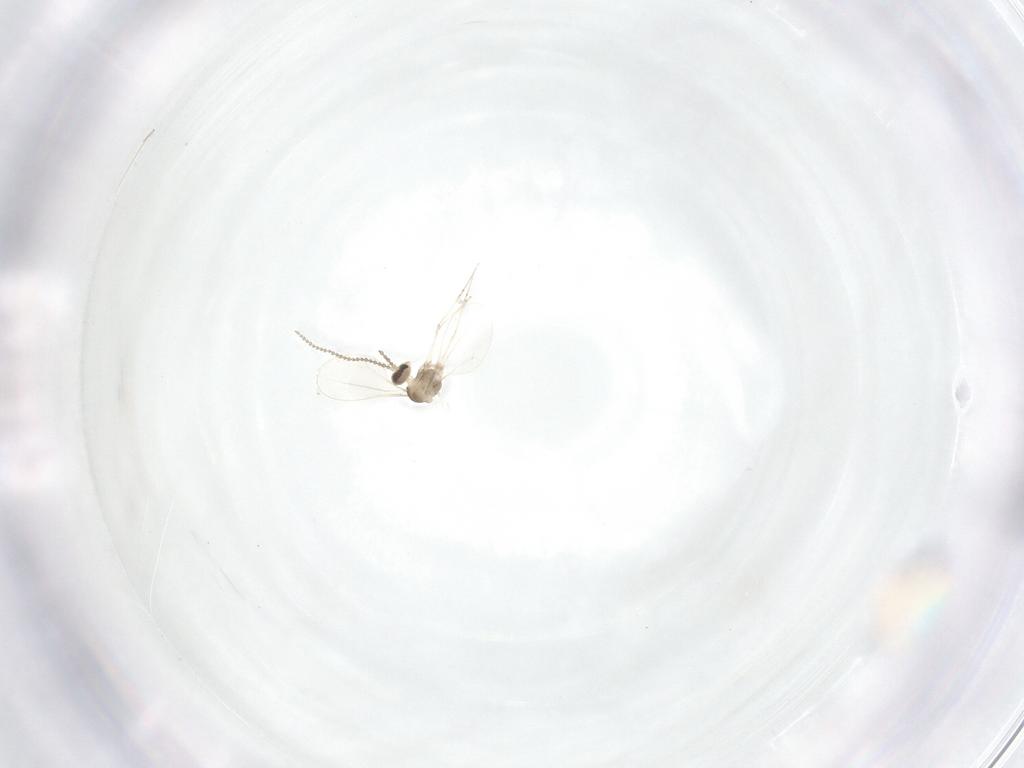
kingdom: Animalia
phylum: Arthropoda
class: Insecta
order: Diptera
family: Cecidomyiidae
